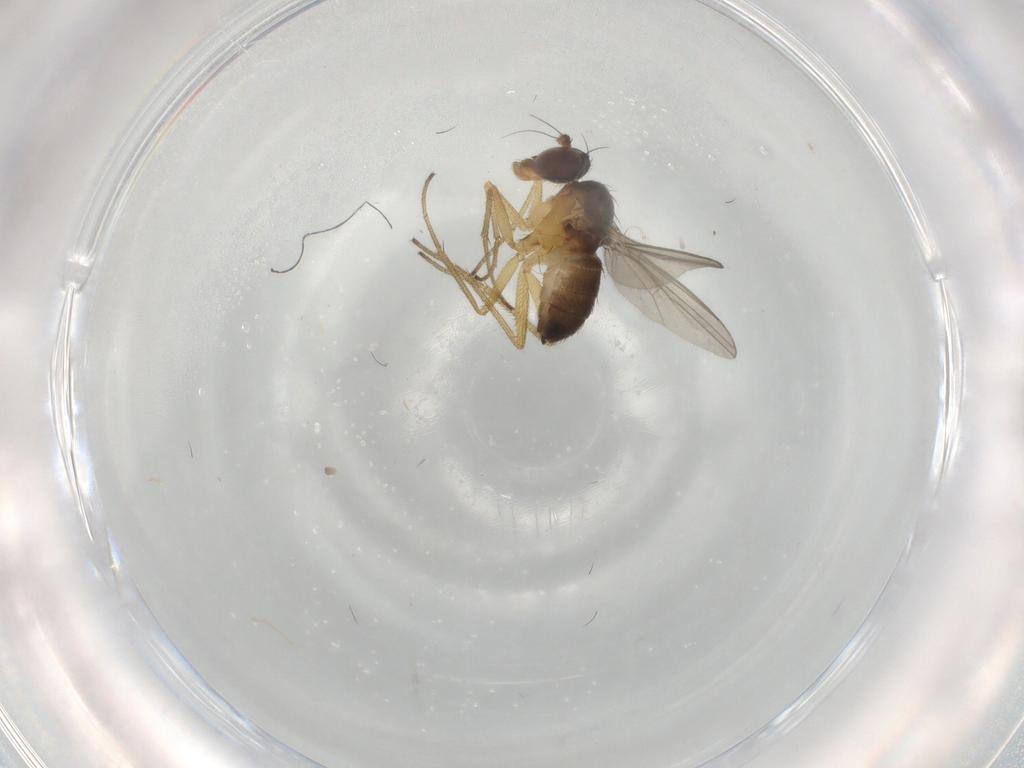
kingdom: Animalia
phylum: Arthropoda
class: Insecta
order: Diptera
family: Dolichopodidae
